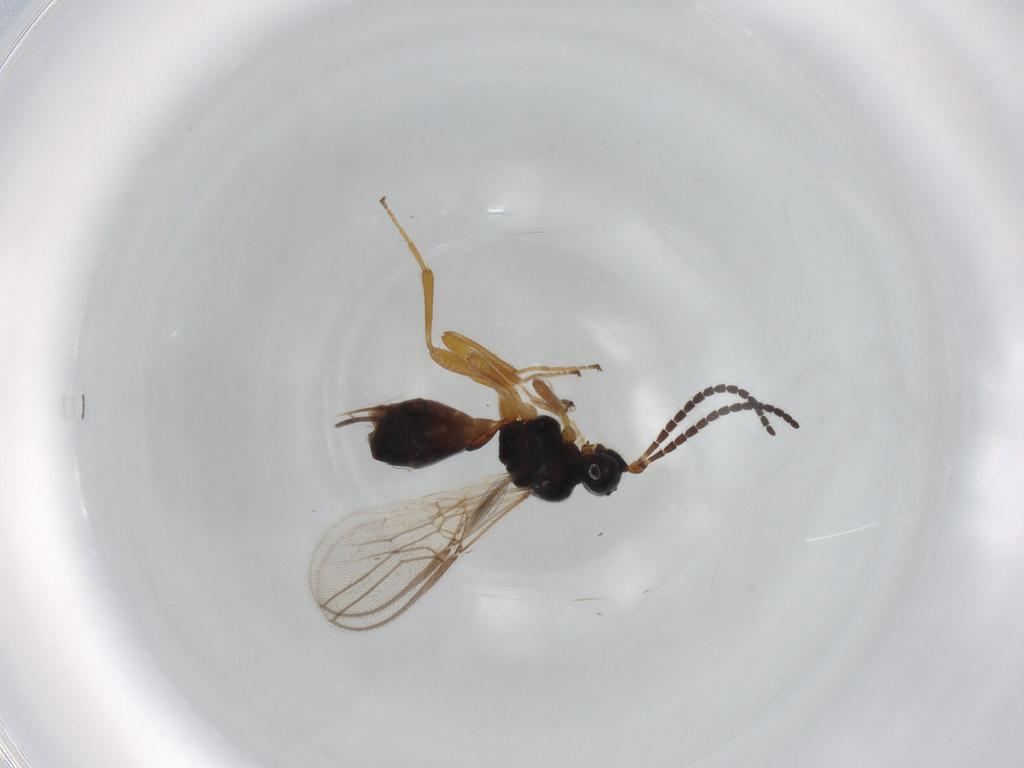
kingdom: Animalia
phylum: Arthropoda
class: Insecta
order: Hymenoptera
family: Braconidae
